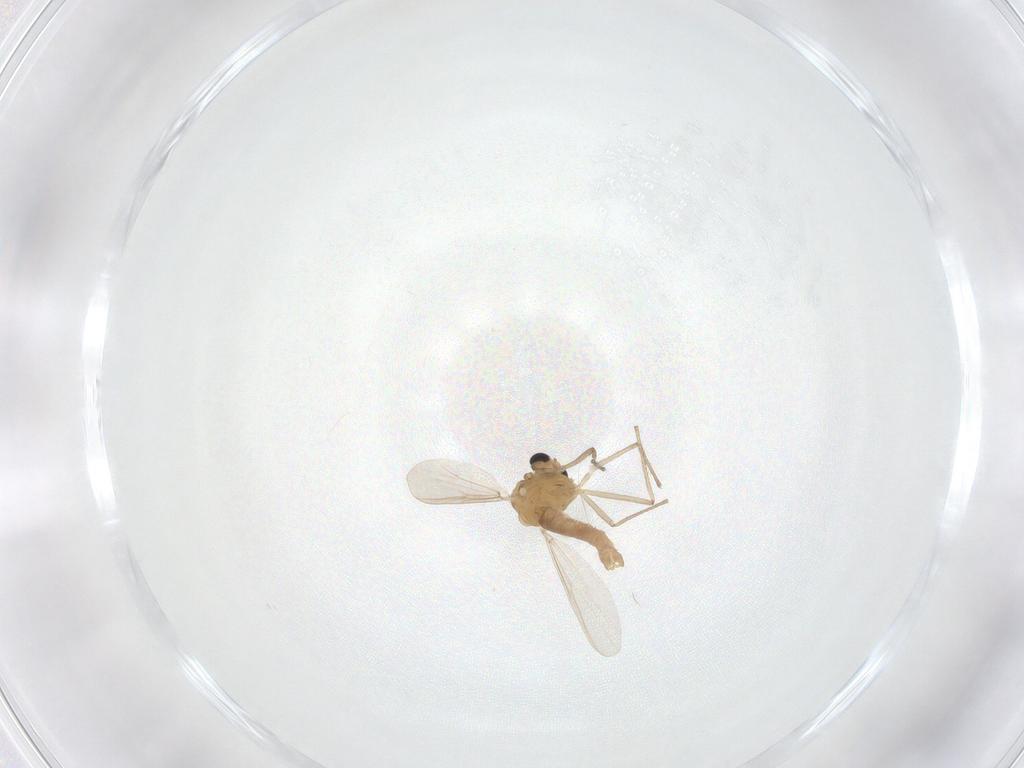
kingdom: Animalia
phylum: Arthropoda
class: Insecta
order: Diptera
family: Chironomidae
